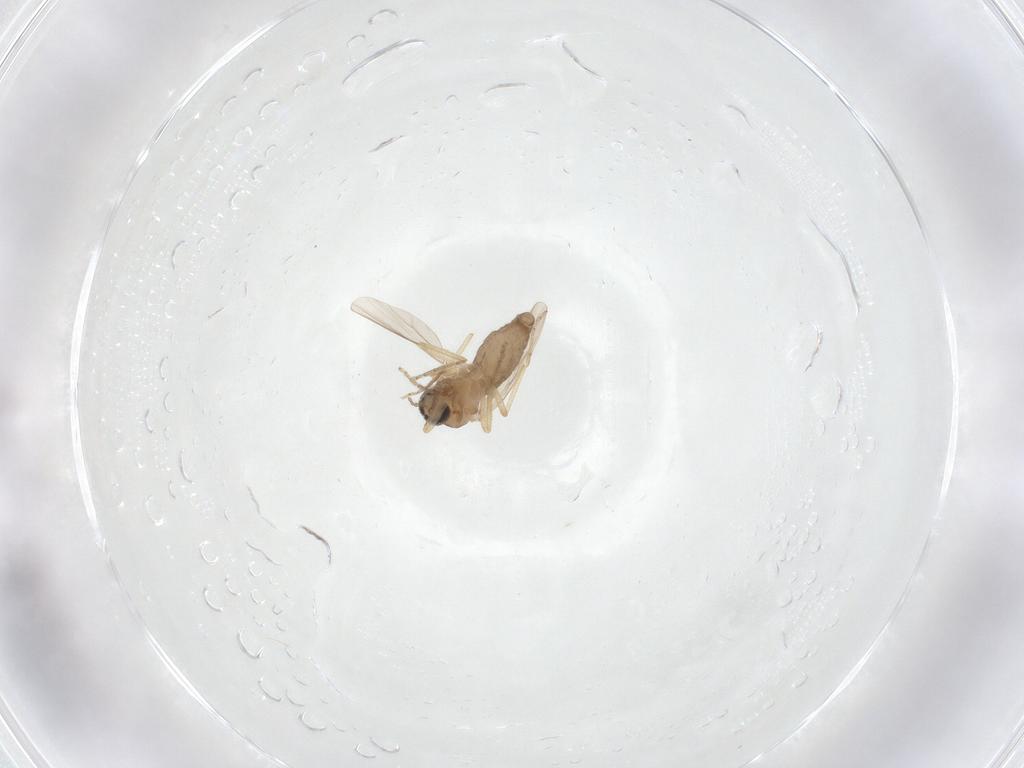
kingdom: Animalia
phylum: Arthropoda
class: Insecta
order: Diptera
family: Ceratopogonidae
